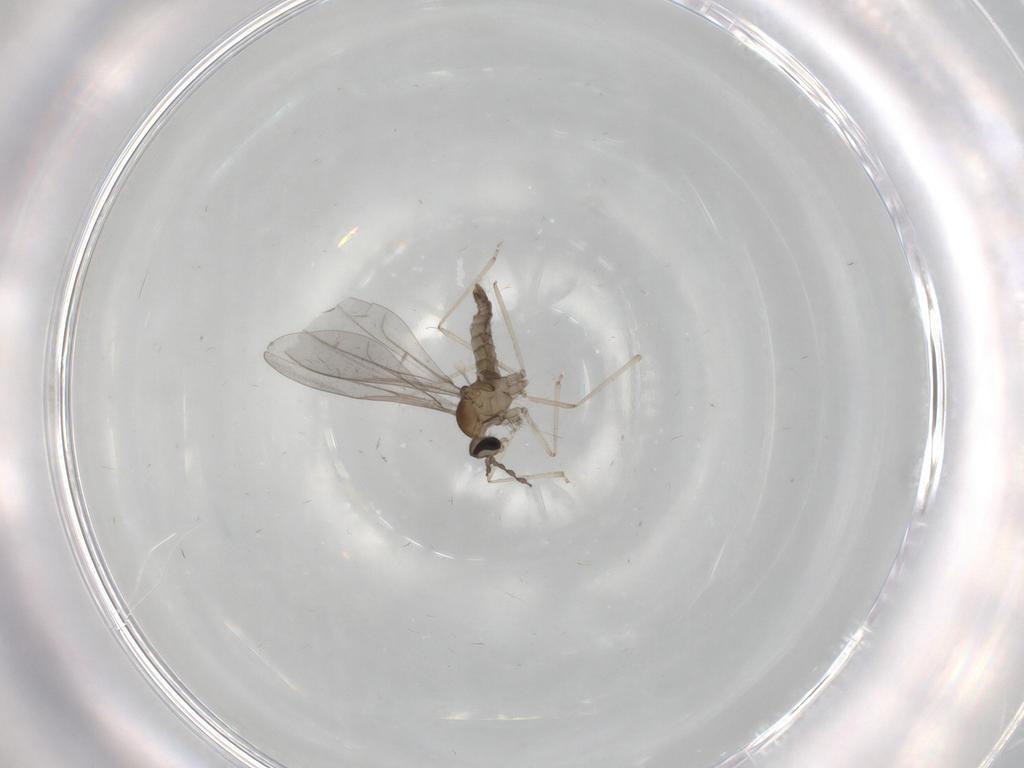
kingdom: Animalia
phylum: Arthropoda
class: Insecta
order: Diptera
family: Cecidomyiidae
